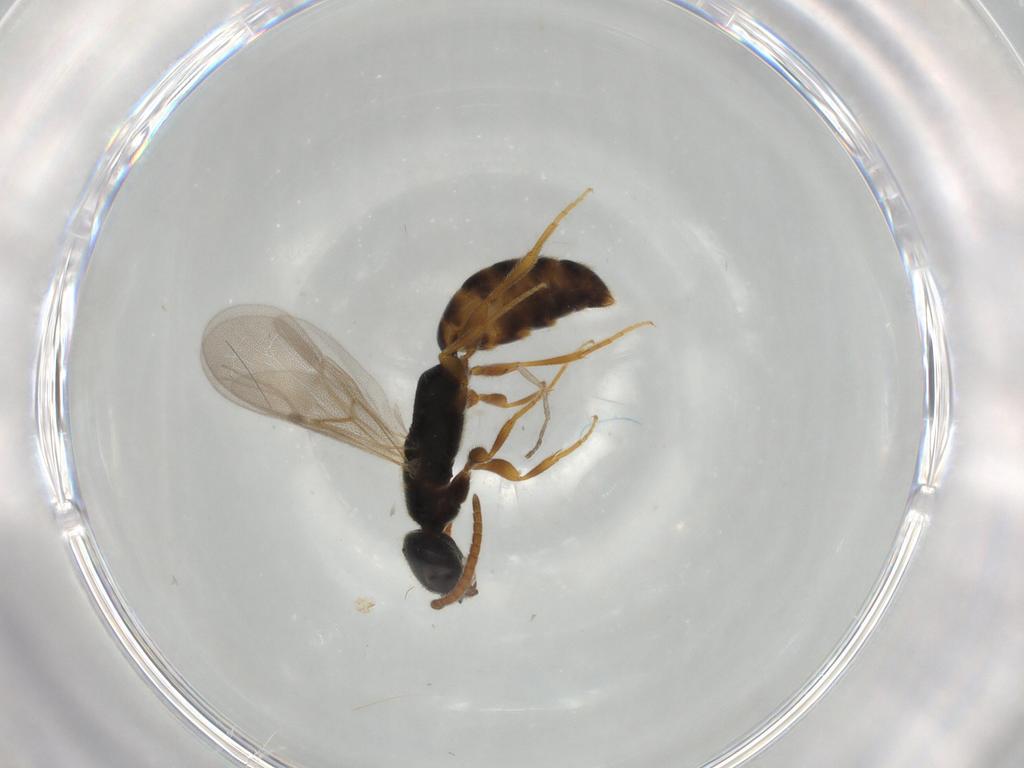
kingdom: Animalia
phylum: Arthropoda
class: Insecta
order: Hymenoptera
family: Bethylidae
